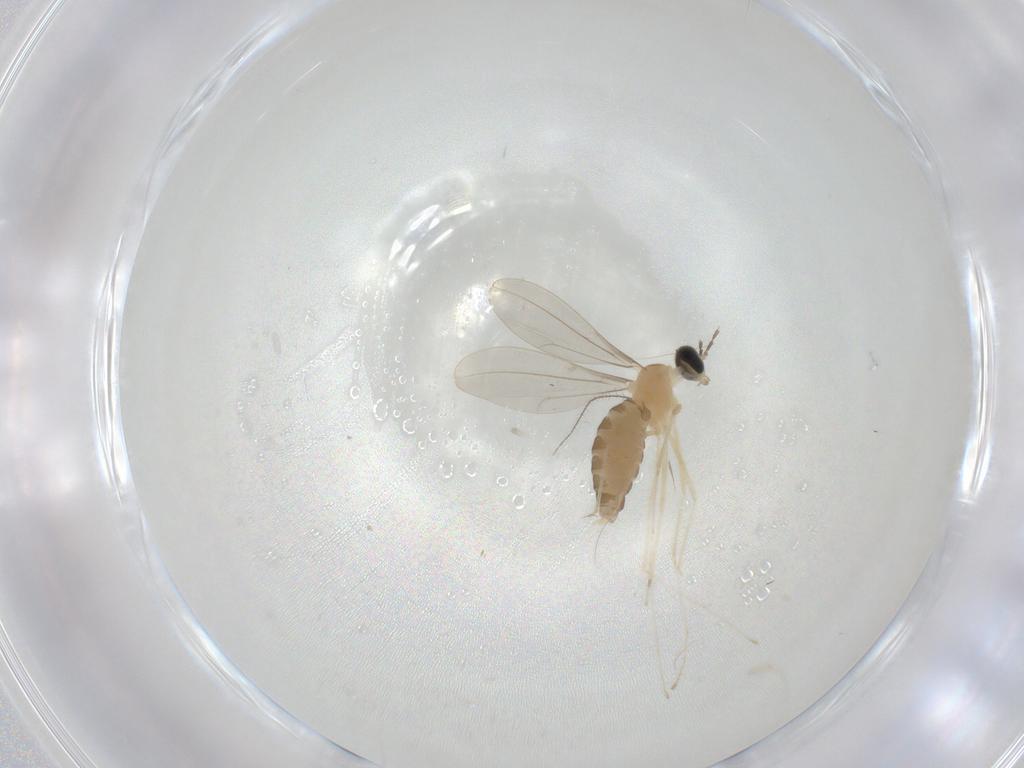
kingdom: Animalia
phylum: Arthropoda
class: Insecta
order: Diptera
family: Cecidomyiidae
